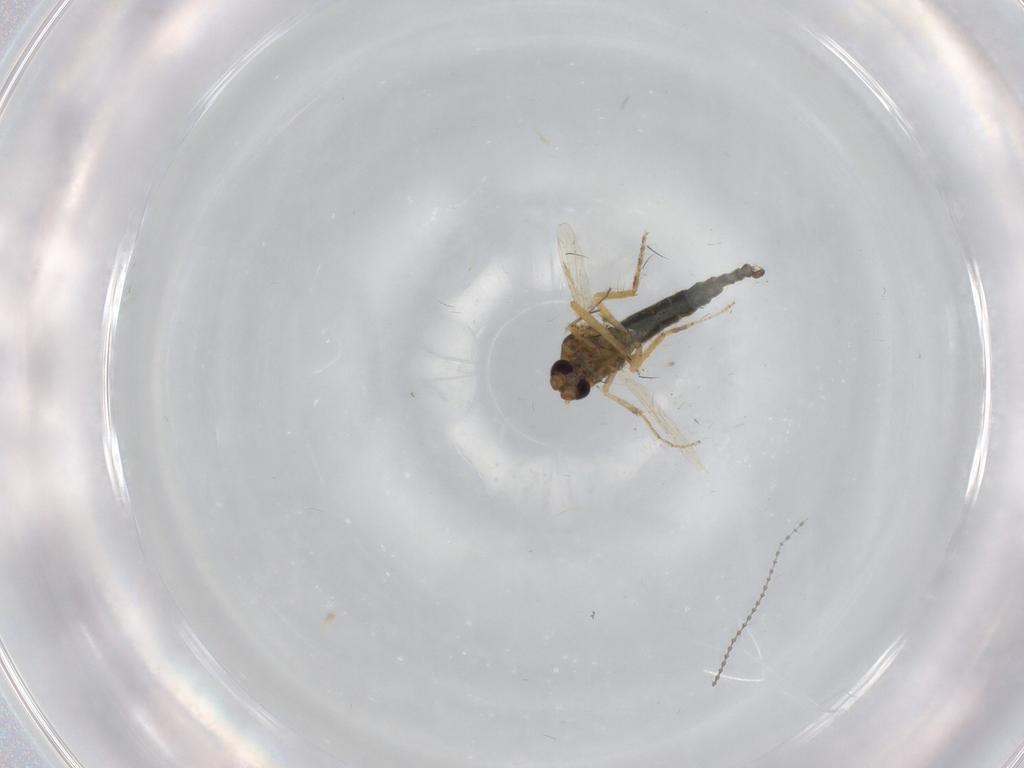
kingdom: Animalia
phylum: Arthropoda
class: Insecta
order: Diptera
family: Ceratopogonidae
